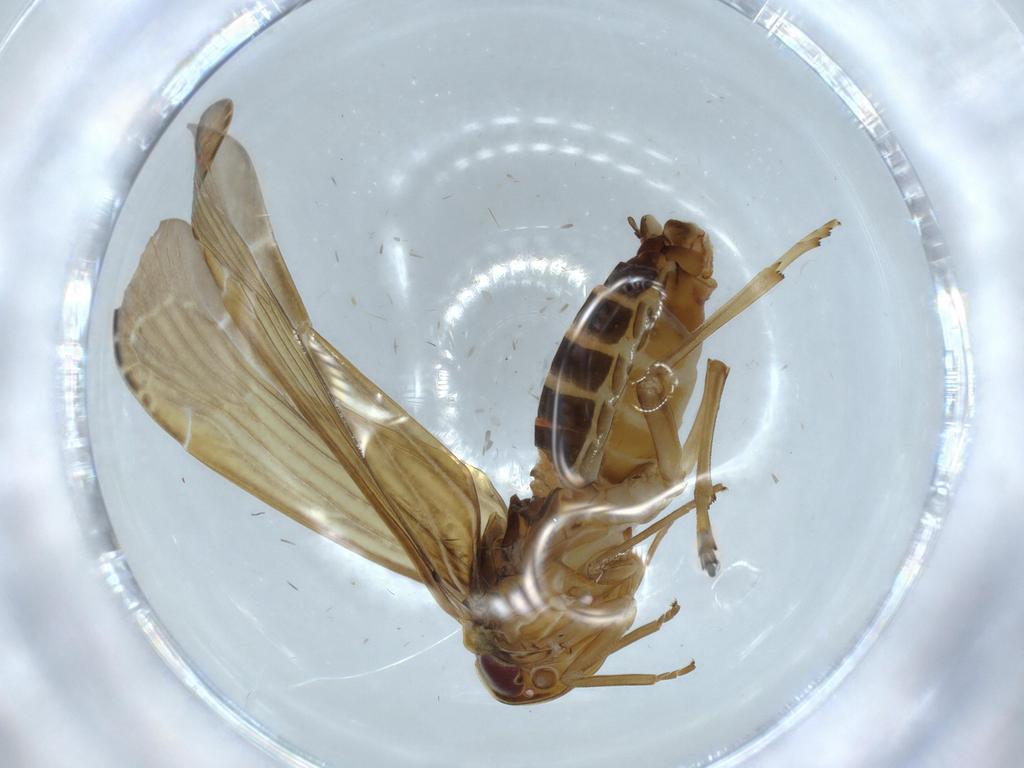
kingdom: Animalia
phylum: Arthropoda
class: Insecta
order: Hemiptera
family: Achilidae
